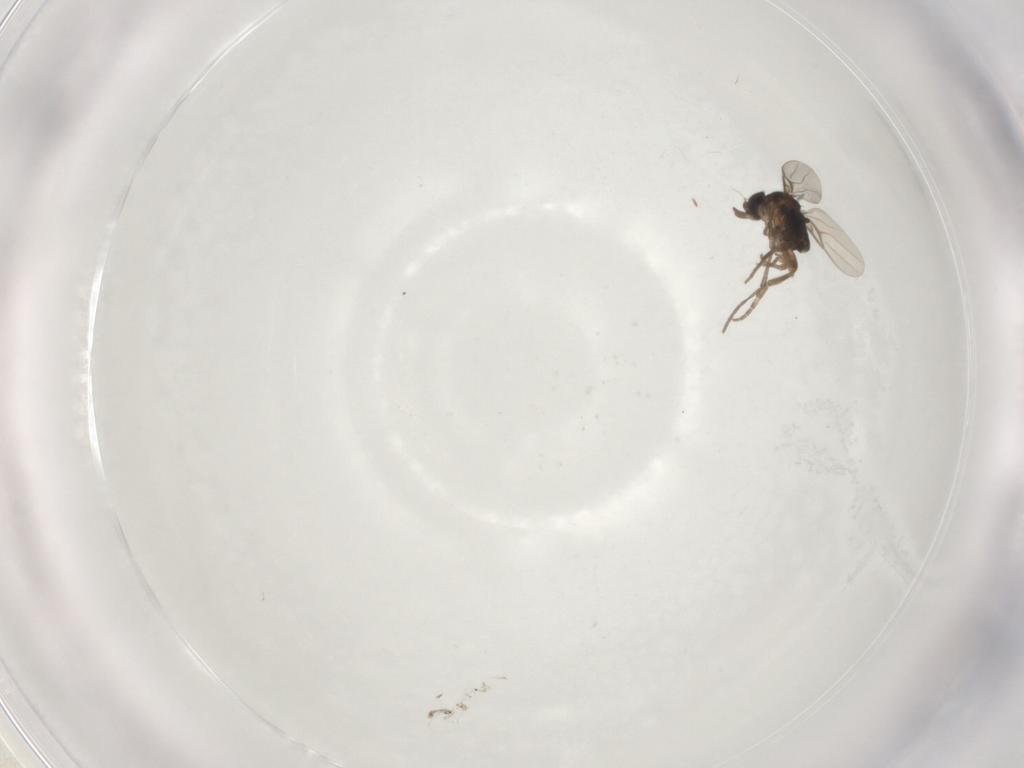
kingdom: Animalia
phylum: Arthropoda
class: Insecta
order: Diptera
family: Phoridae
